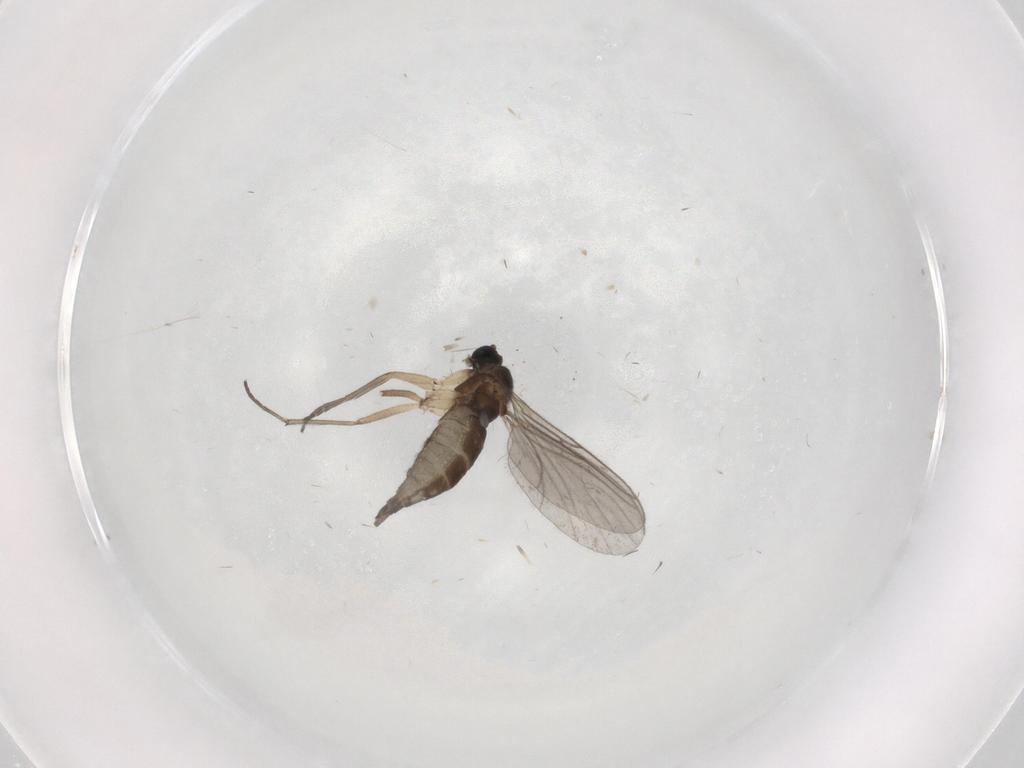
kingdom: Animalia
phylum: Arthropoda
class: Insecta
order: Diptera
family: Sciaridae
